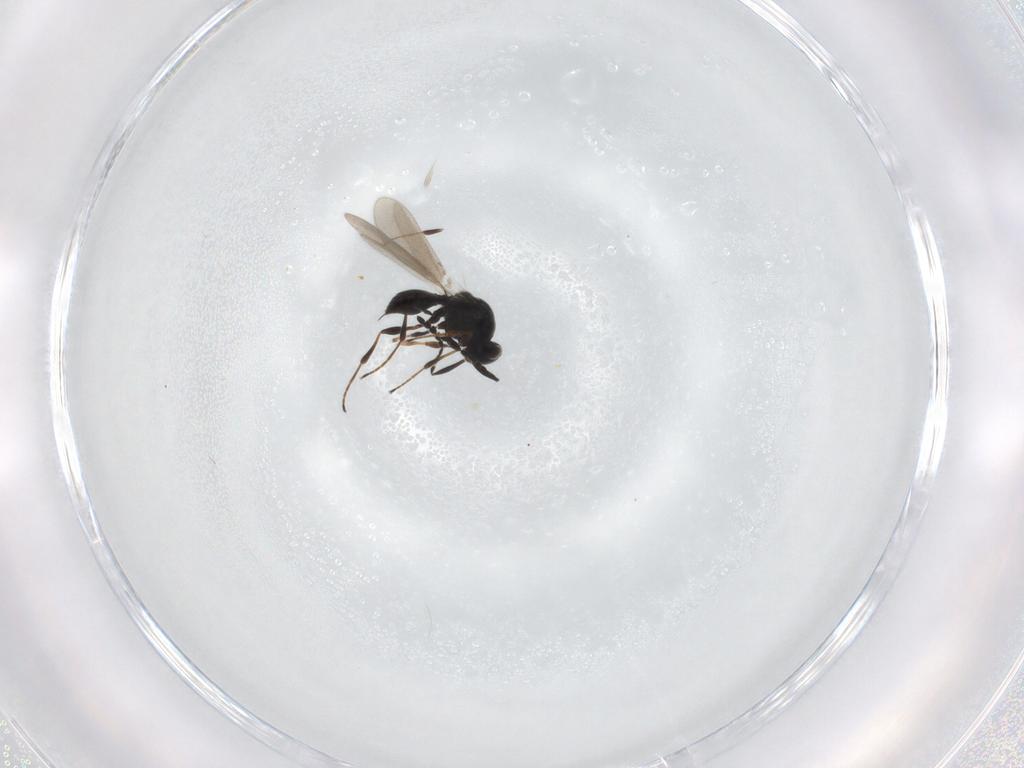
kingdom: Animalia
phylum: Arthropoda
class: Insecta
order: Hymenoptera
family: Platygastridae
